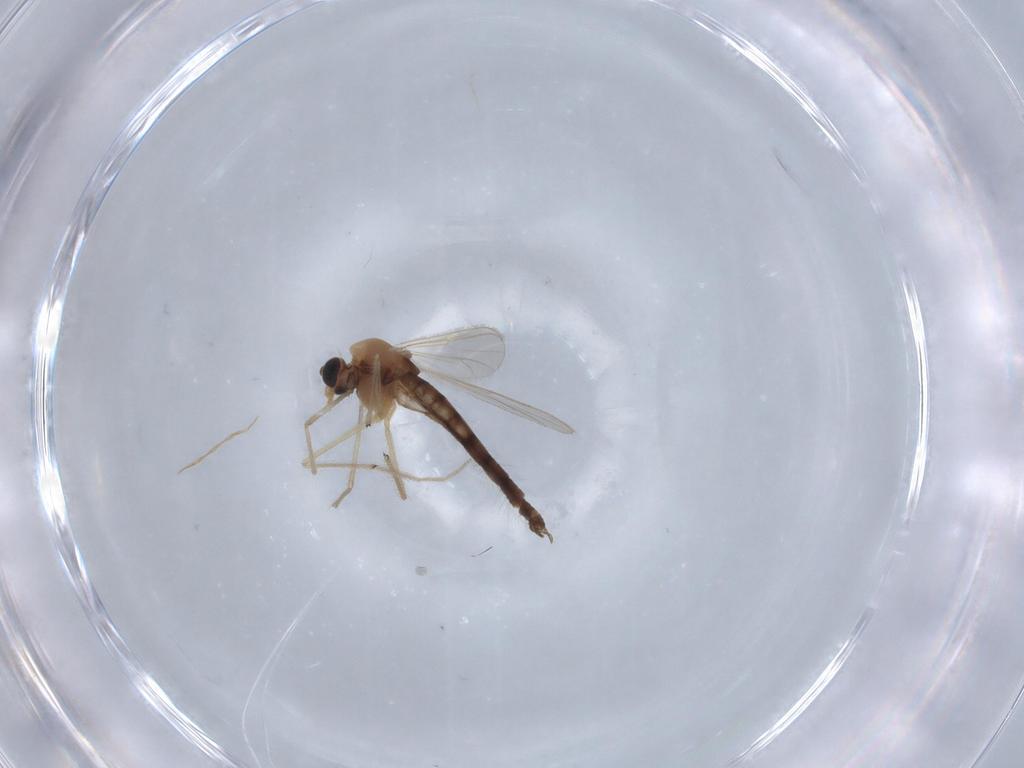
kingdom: Animalia
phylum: Arthropoda
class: Insecta
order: Diptera
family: Chironomidae
